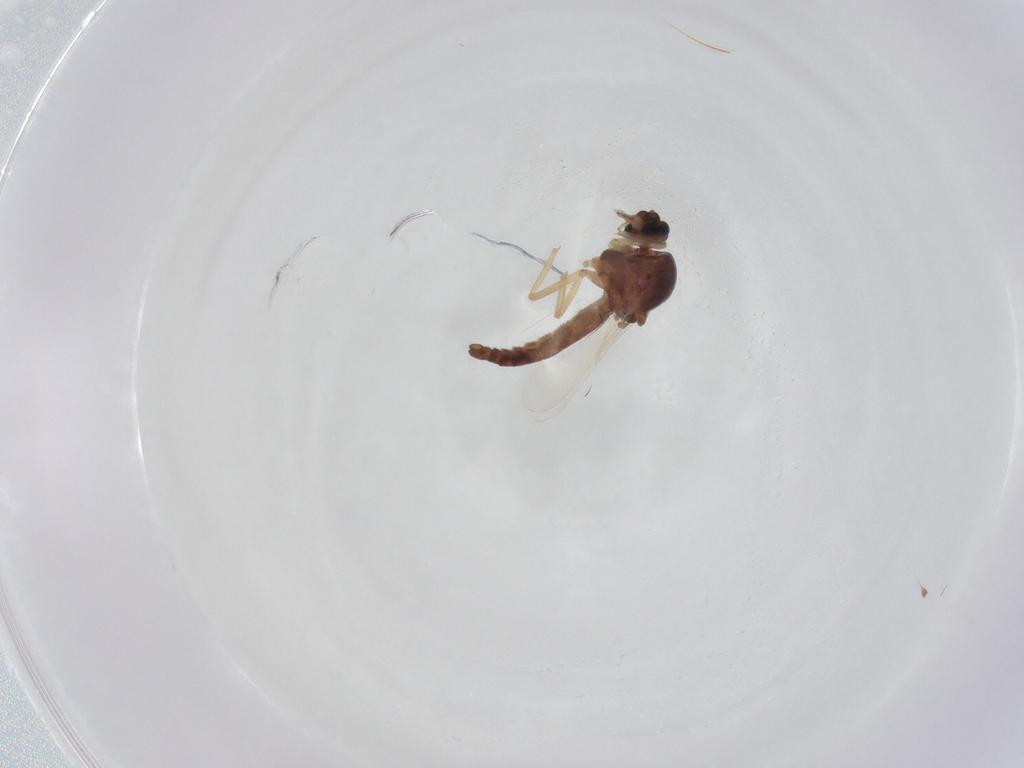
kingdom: Animalia
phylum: Arthropoda
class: Insecta
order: Diptera
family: Ceratopogonidae
